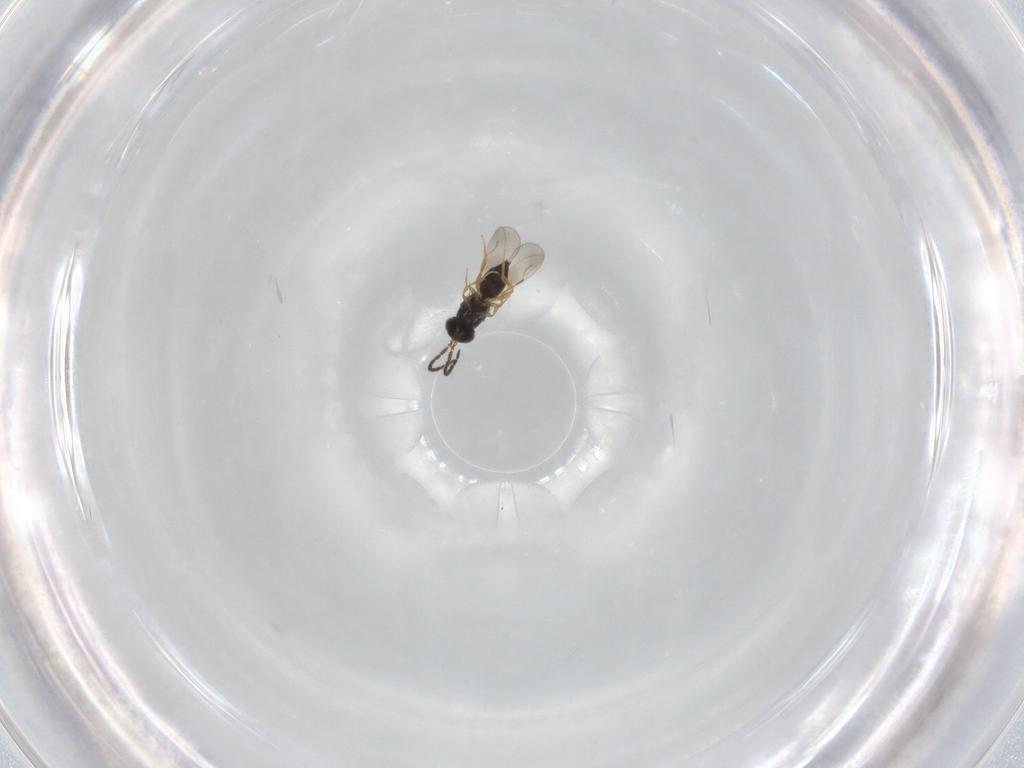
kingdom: Animalia
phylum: Arthropoda
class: Insecta
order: Hymenoptera
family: Ceraphronidae
